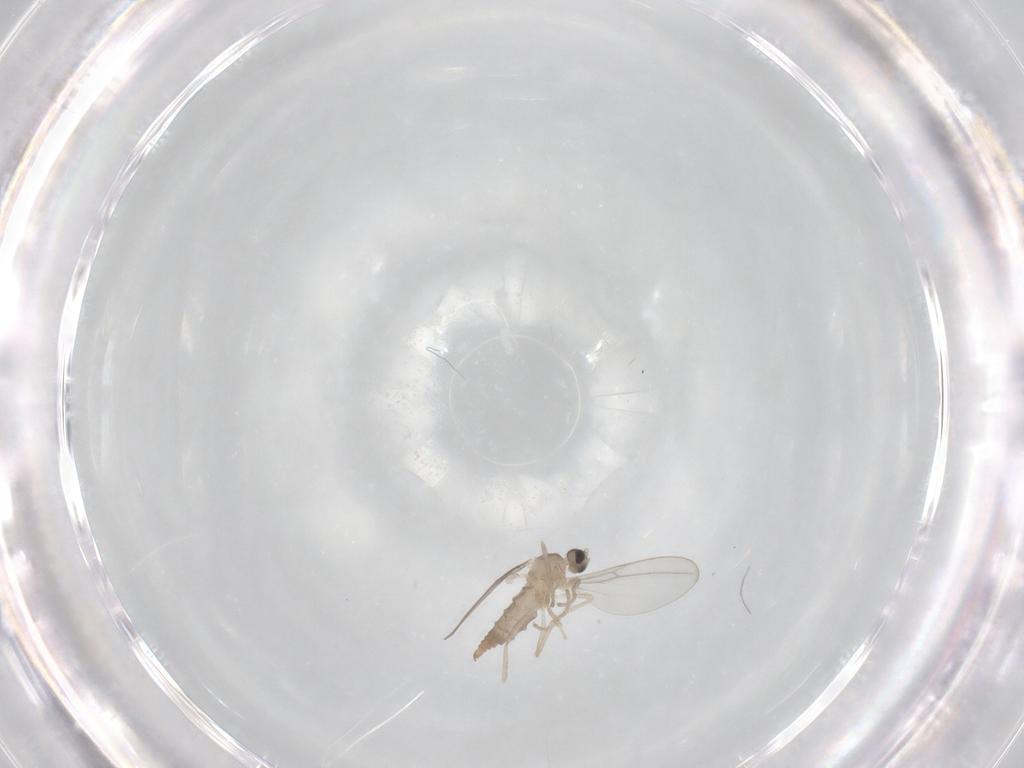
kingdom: Animalia
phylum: Arthropoda
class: Insecta
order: Diptera
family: Cecidomyiidae
